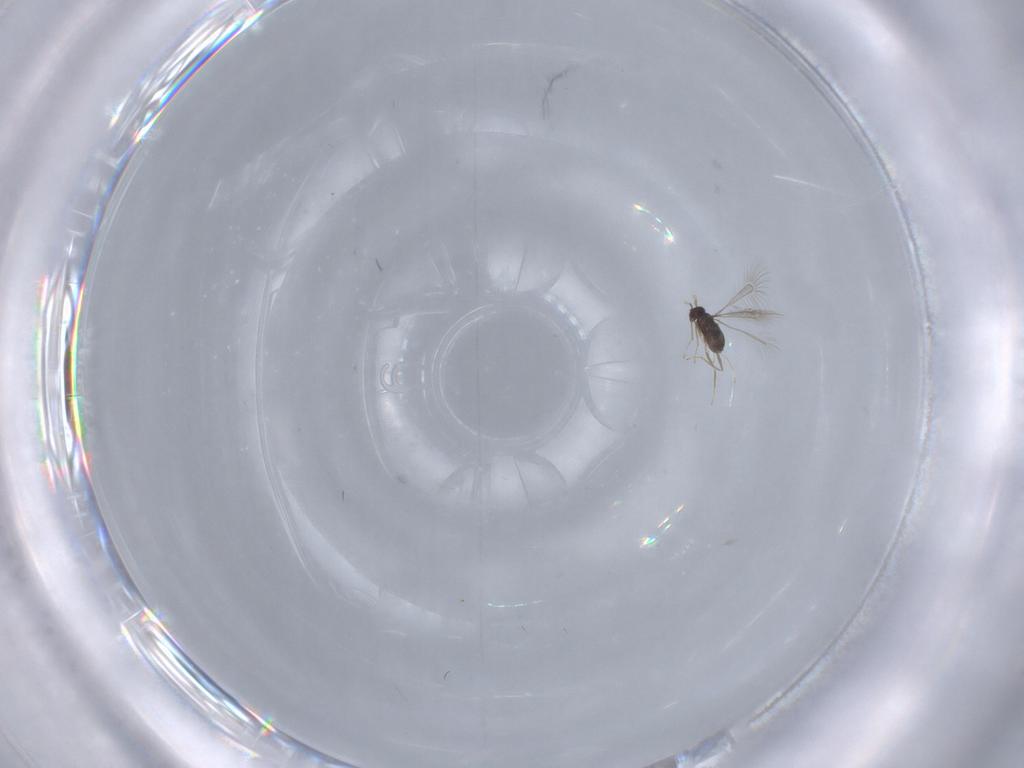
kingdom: Animalia
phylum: Arthropoda
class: Insecta
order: Hymenoptera
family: Mymaridae
